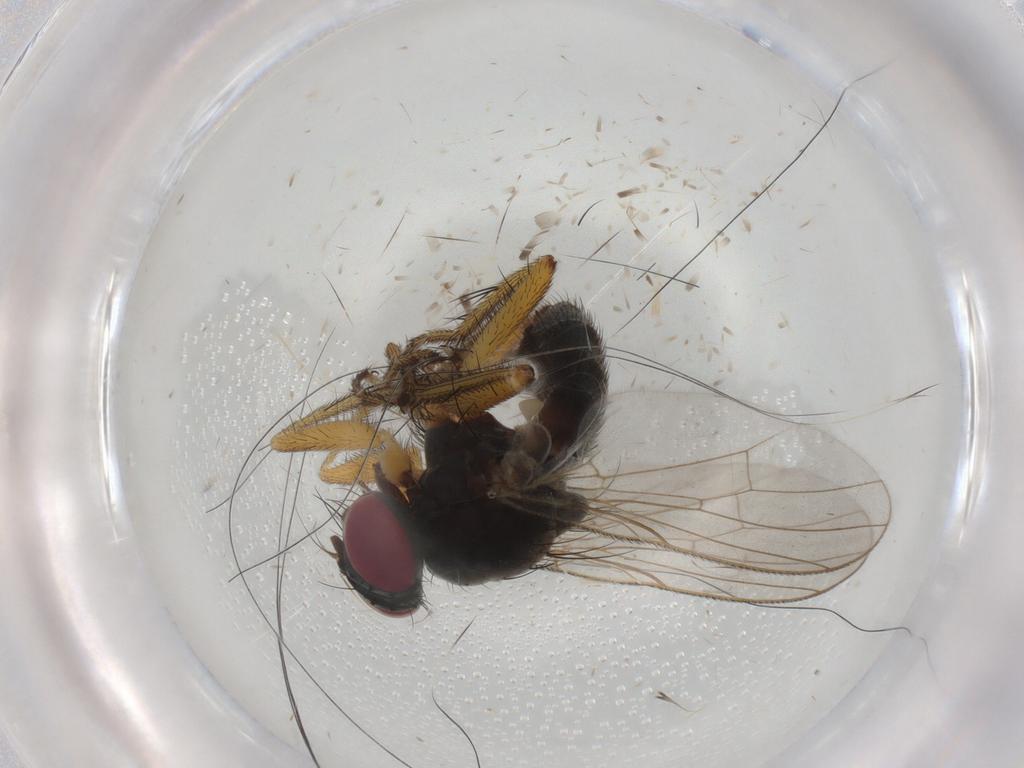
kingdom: Animalia
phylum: Arthropoda
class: Insecta
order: Diptera
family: Muscidae
